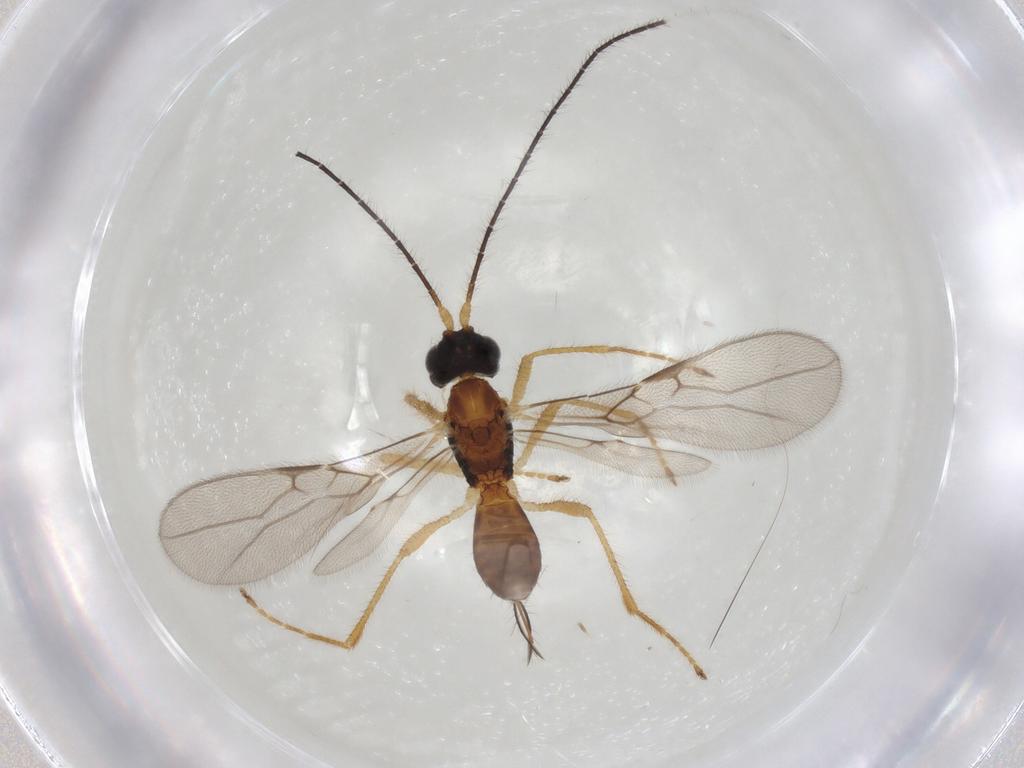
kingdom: Animalia
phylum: Arthropoda
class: Insecta
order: Hymenoptera
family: Braconidae
